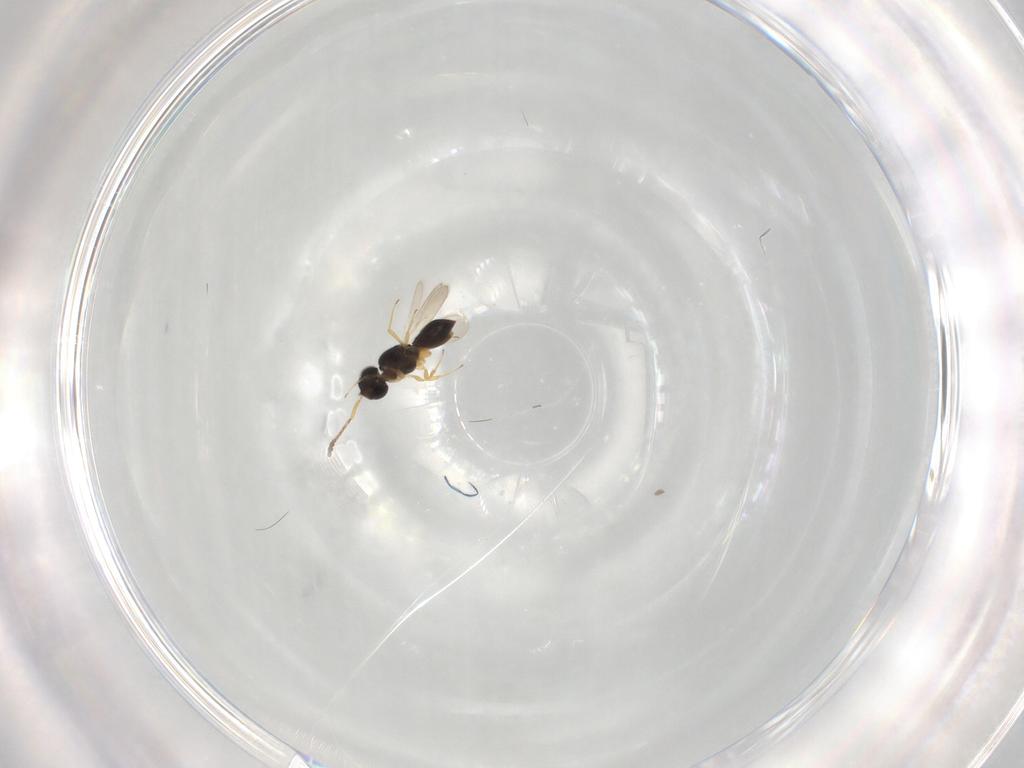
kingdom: Animalia
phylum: Arthropoda
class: Insecta
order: Hymenoptera
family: Scelionidae
